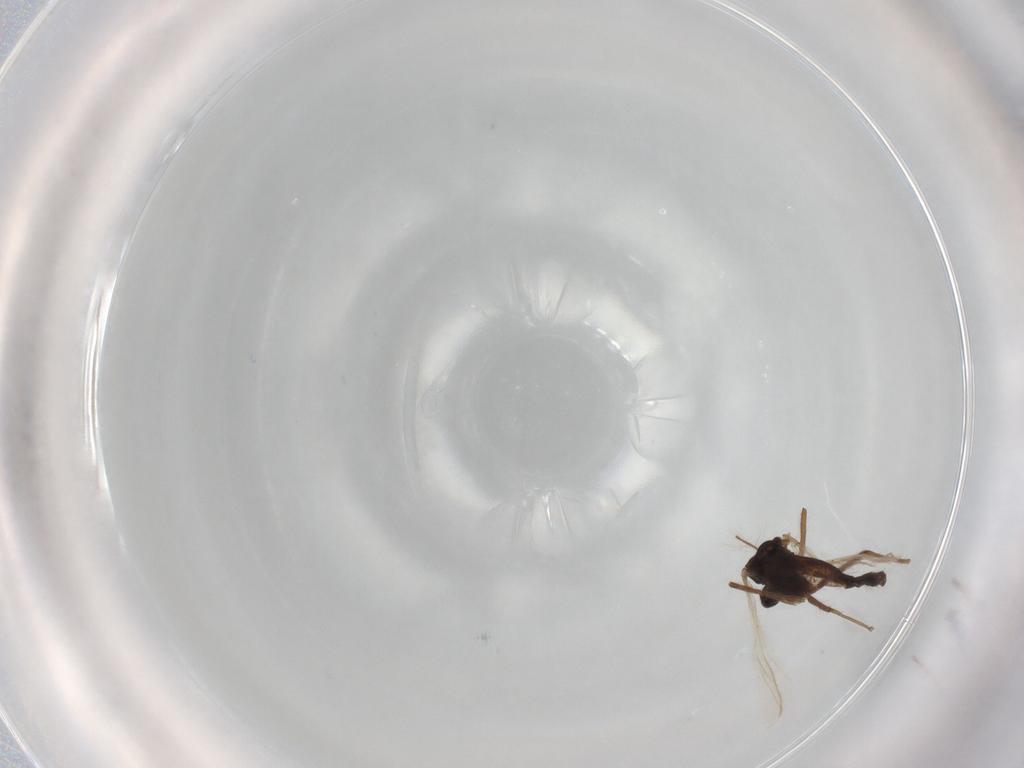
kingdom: Animalia
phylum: Arthropoda
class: Insecta
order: Diptera
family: Chironomidae
